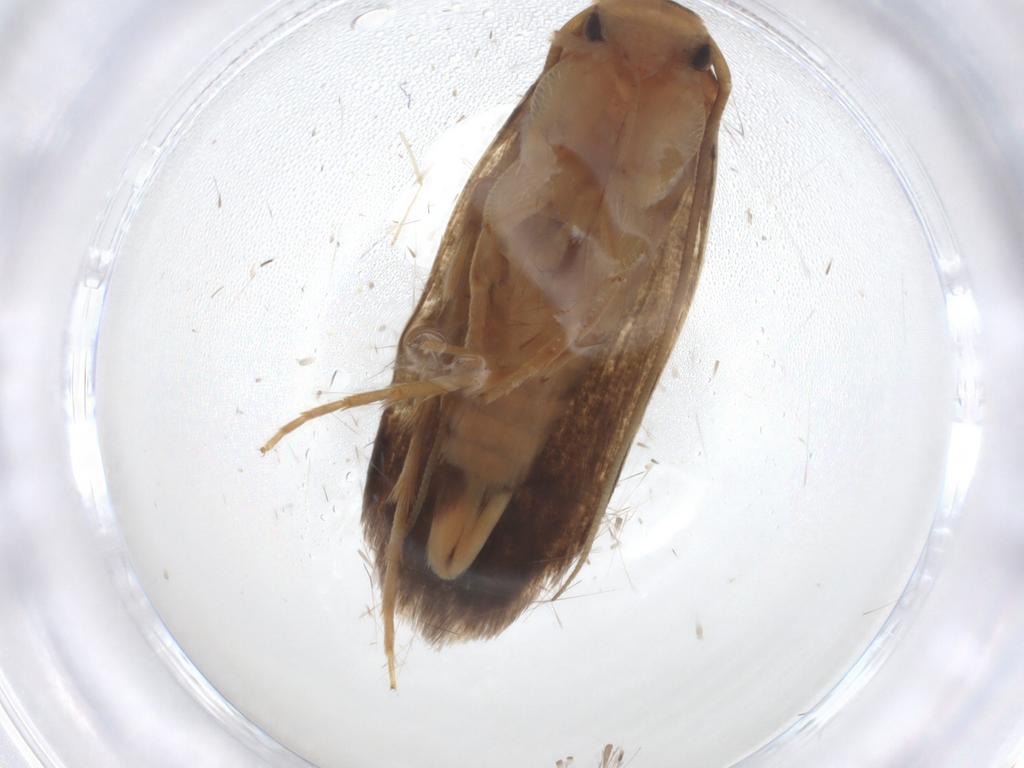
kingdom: Animalia
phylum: Arthropoda
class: Insecta
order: Lepidoptera
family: Tineidae
